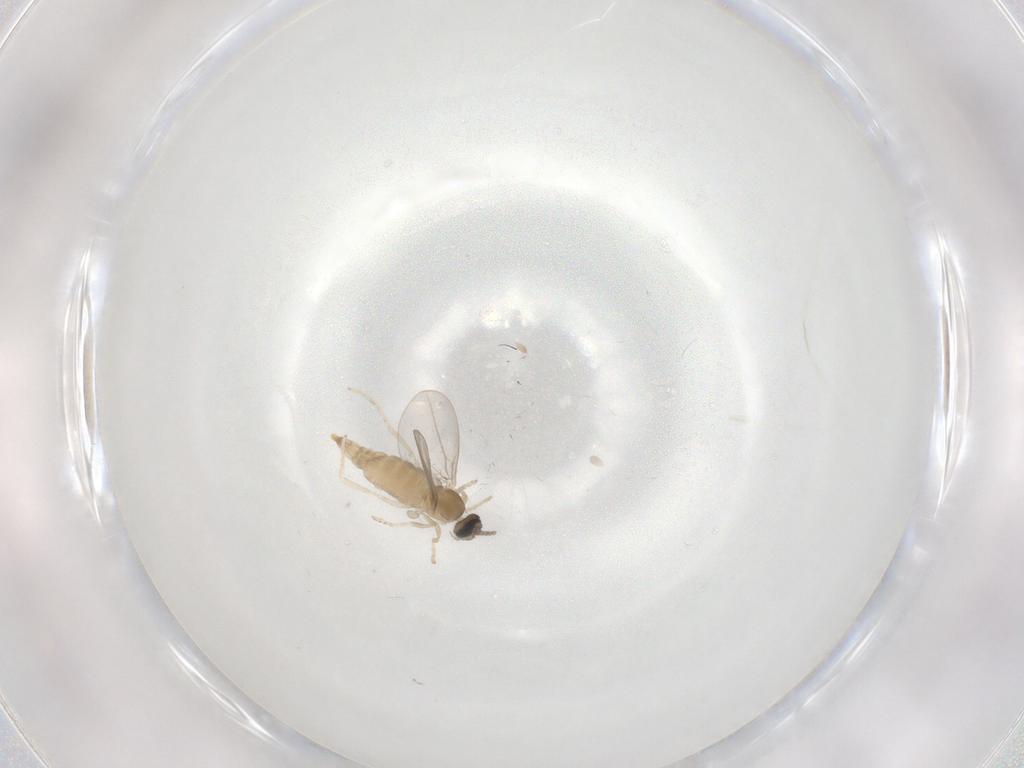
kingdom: Animalia
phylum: Arthropoda
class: Insecta
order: Diptera
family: Cecidomyiidae
